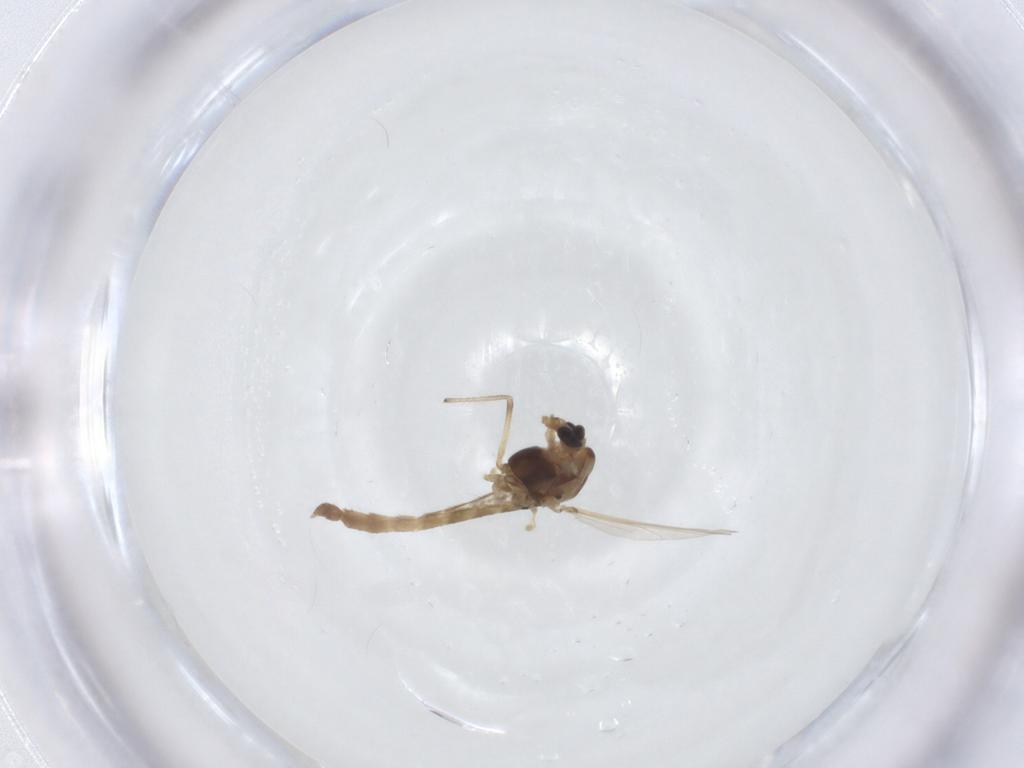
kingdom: Animalia
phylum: Arthropoda
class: Insecta
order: Diptera
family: Chironomidae
